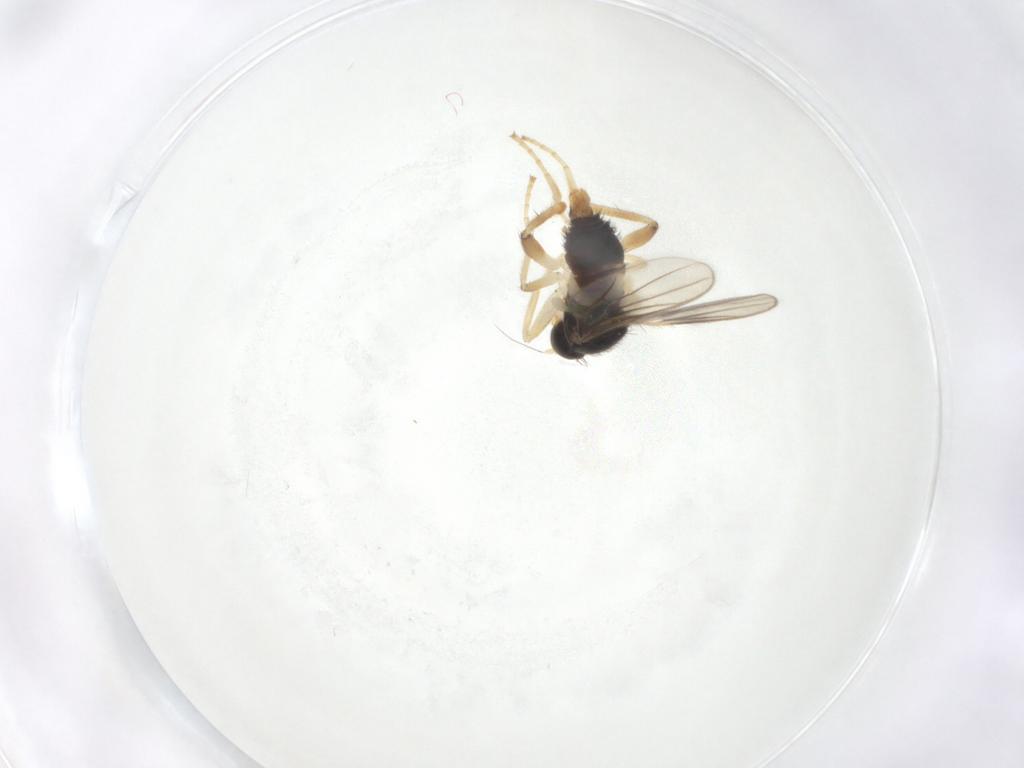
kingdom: Animalia
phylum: Arthropoda
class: Insecta
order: Diptera
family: Hybotidae
